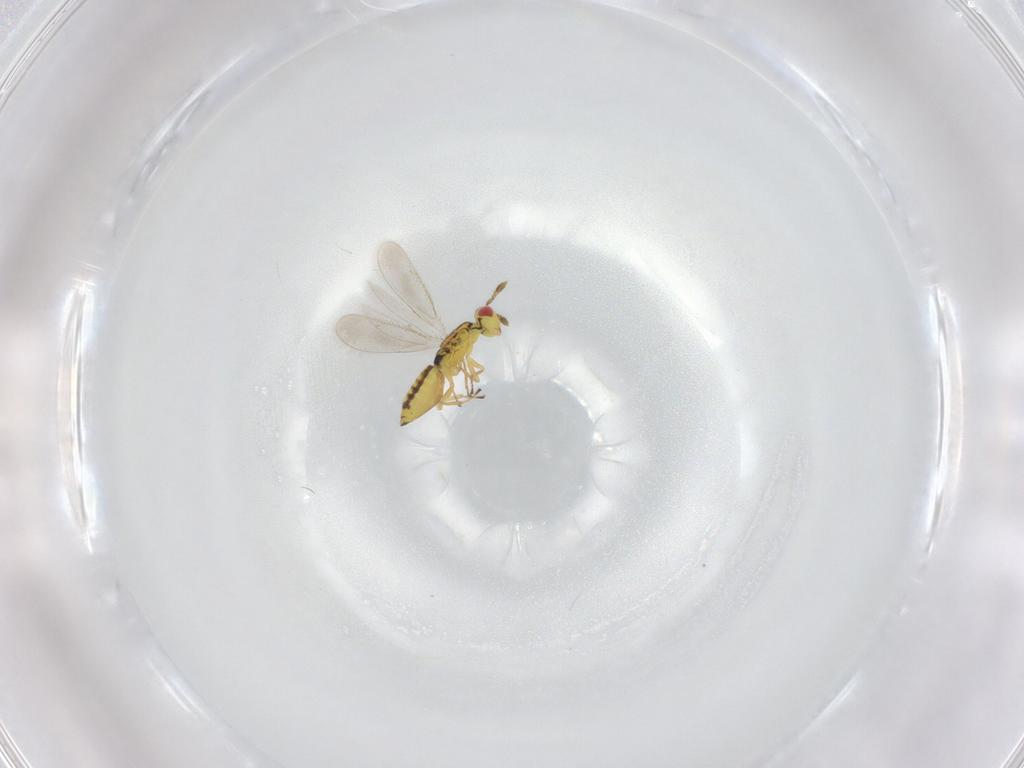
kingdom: Animalia
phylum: Arthropoda
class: Insecta
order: Hymenoptera
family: Eulophidae
